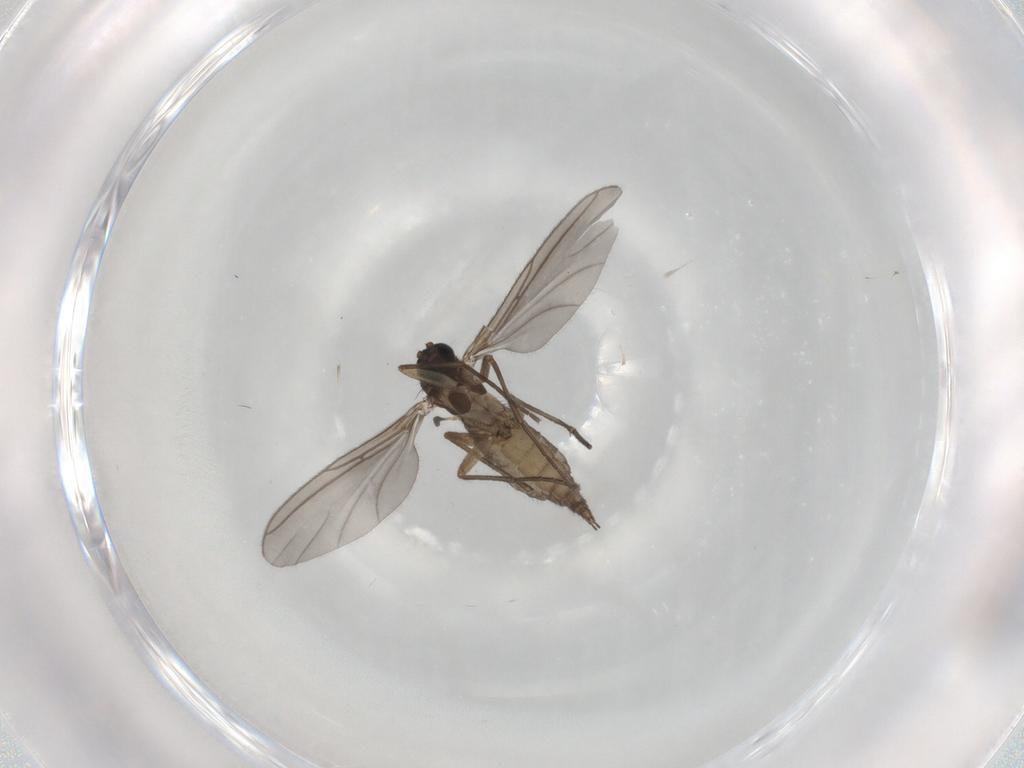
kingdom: Animalia
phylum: Arthropoda
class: Insecta
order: Diptera
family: Sciaridae
